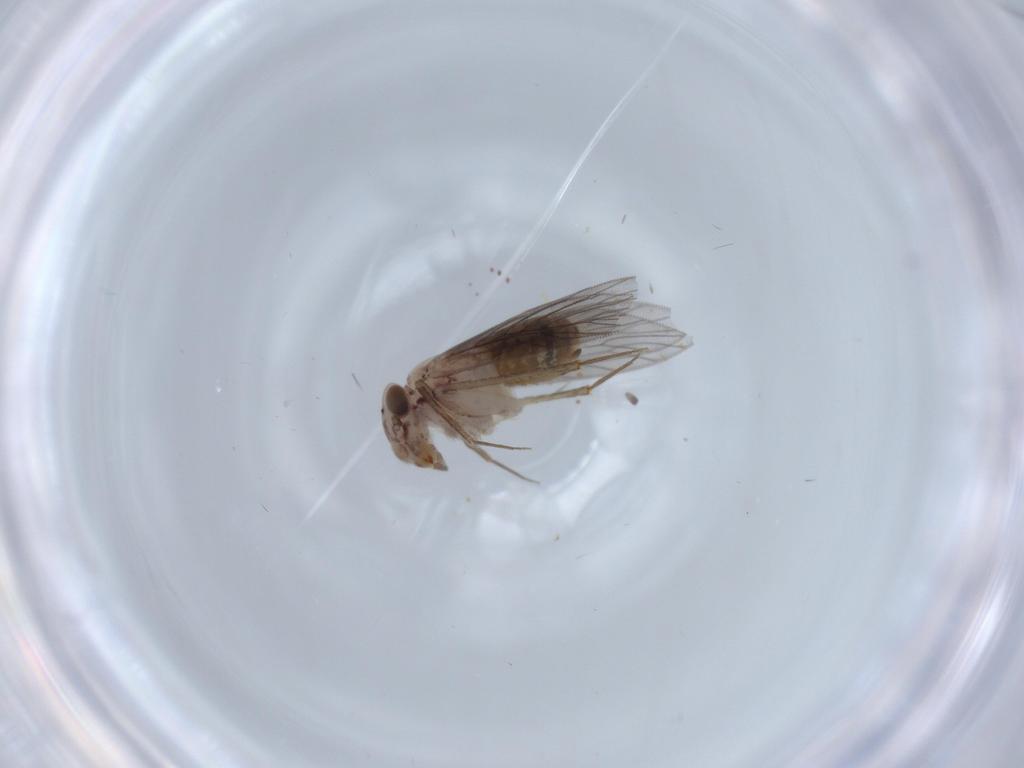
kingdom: Animalia
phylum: Arthropoda
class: Insecta
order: Psocodea
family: Lepidopsocidae
